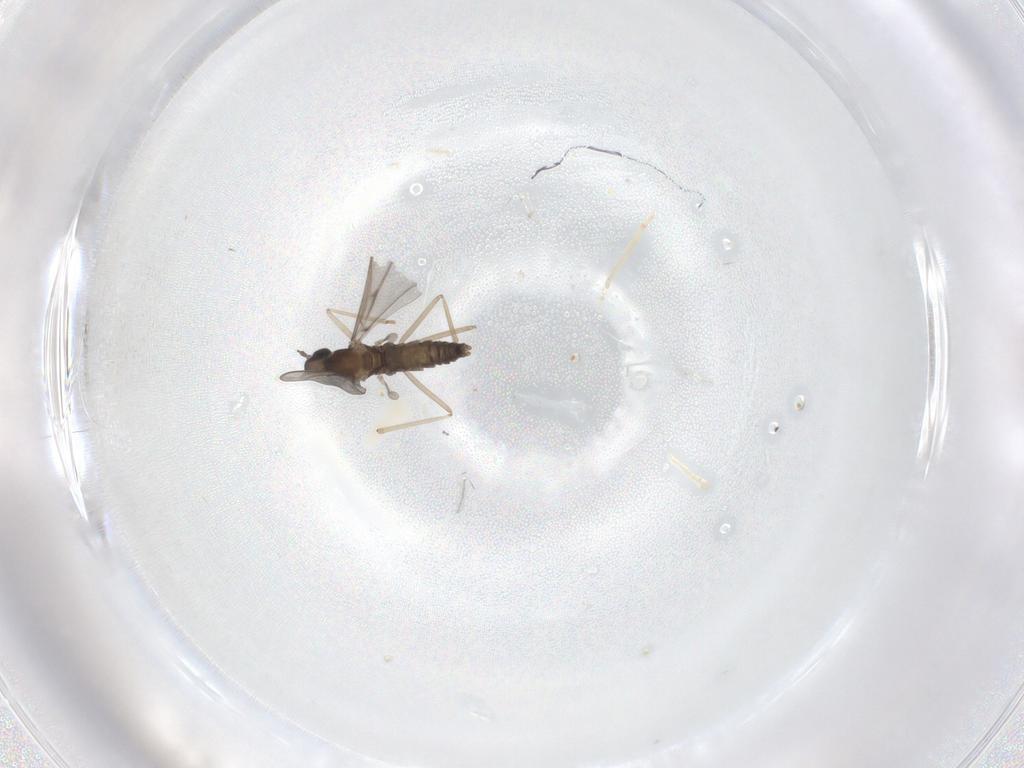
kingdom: Animalia
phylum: Arthropoda
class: Insecta
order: Diptera
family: Cecidomyiidae
